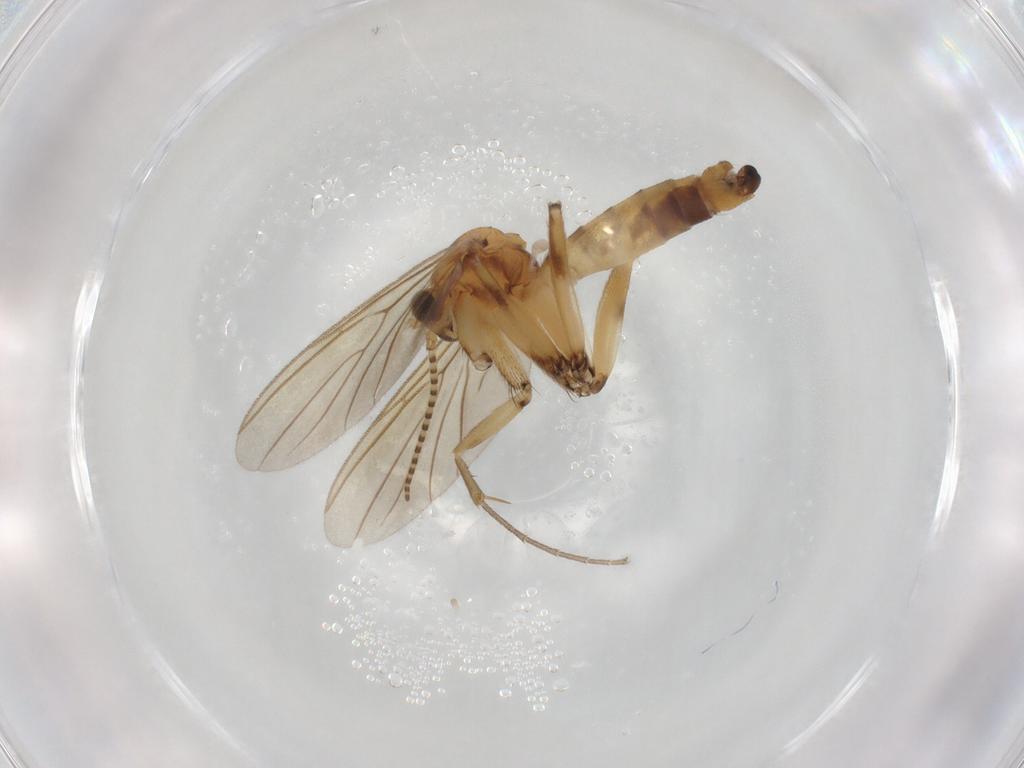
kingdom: Animalia
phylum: Arthropoda
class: Insecta
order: Diptera
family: Mycetophilidae
